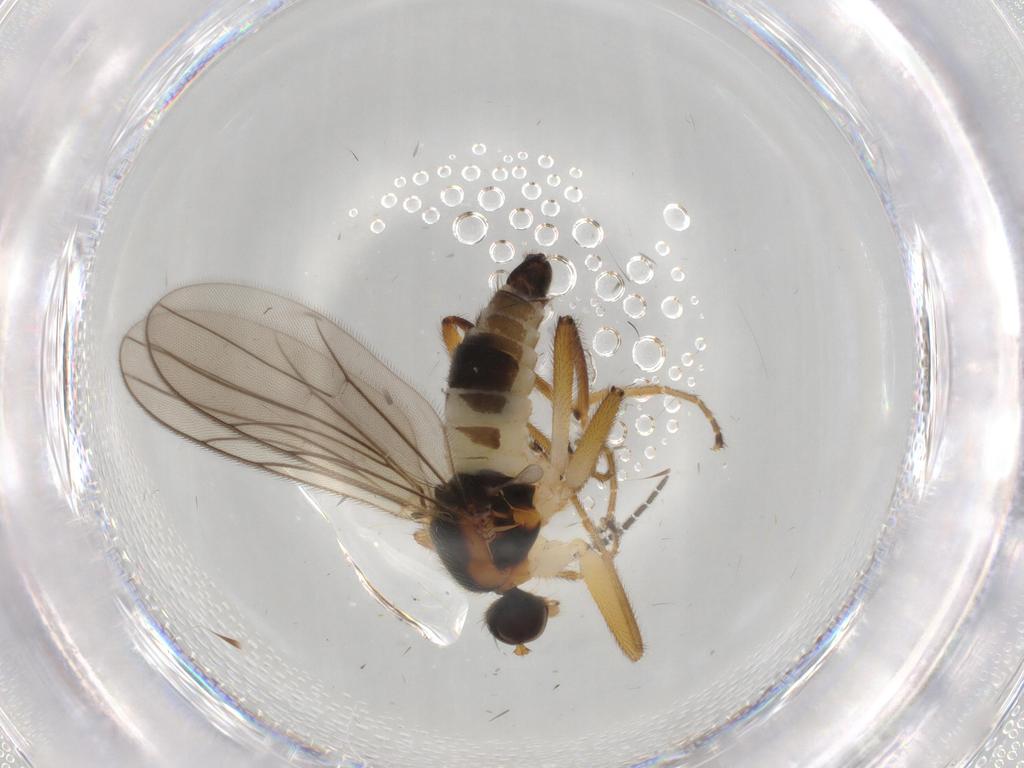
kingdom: Animalia
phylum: Arthropoda
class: Insecta
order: Diptera
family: Hybotidae
